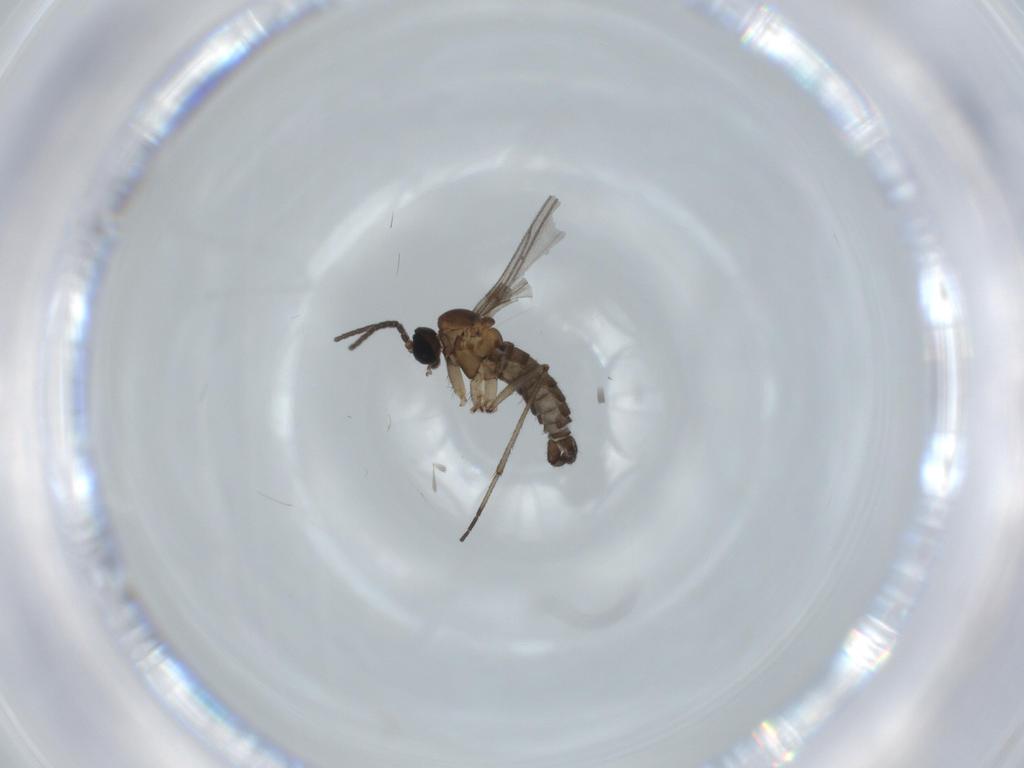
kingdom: Animalia
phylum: Arthropoda
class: Insecta
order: Diptera
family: Sciaridae
